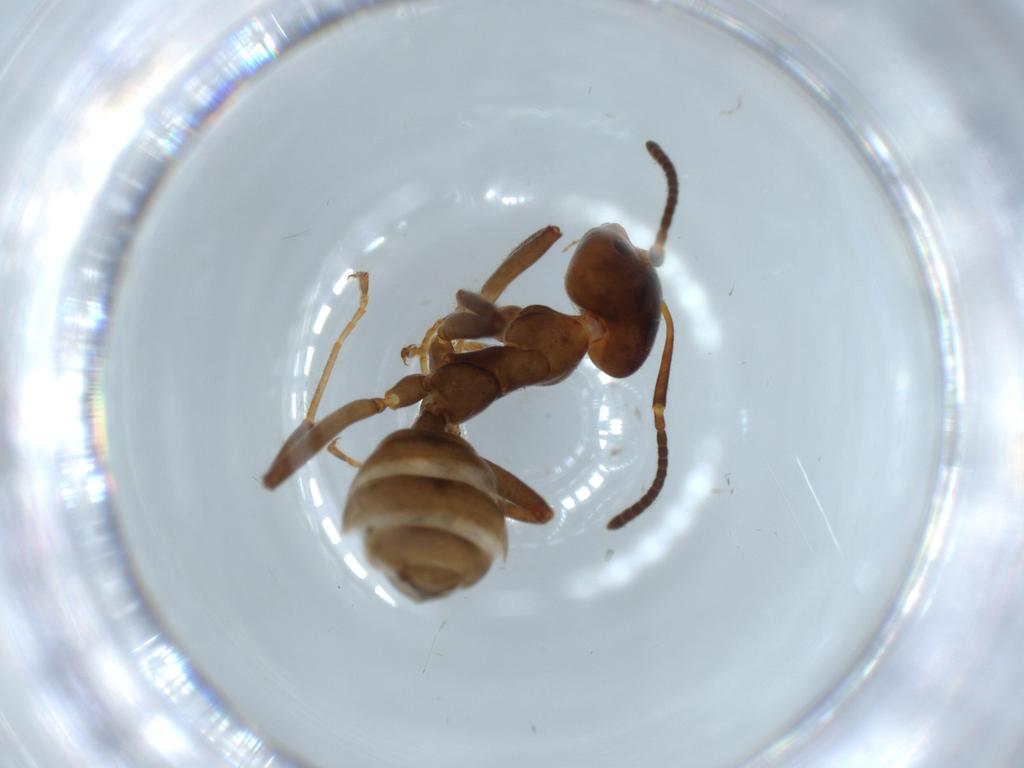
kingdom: Animalia
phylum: Arthropoda
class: Insecta
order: Hymenoptera
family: Formicidae
